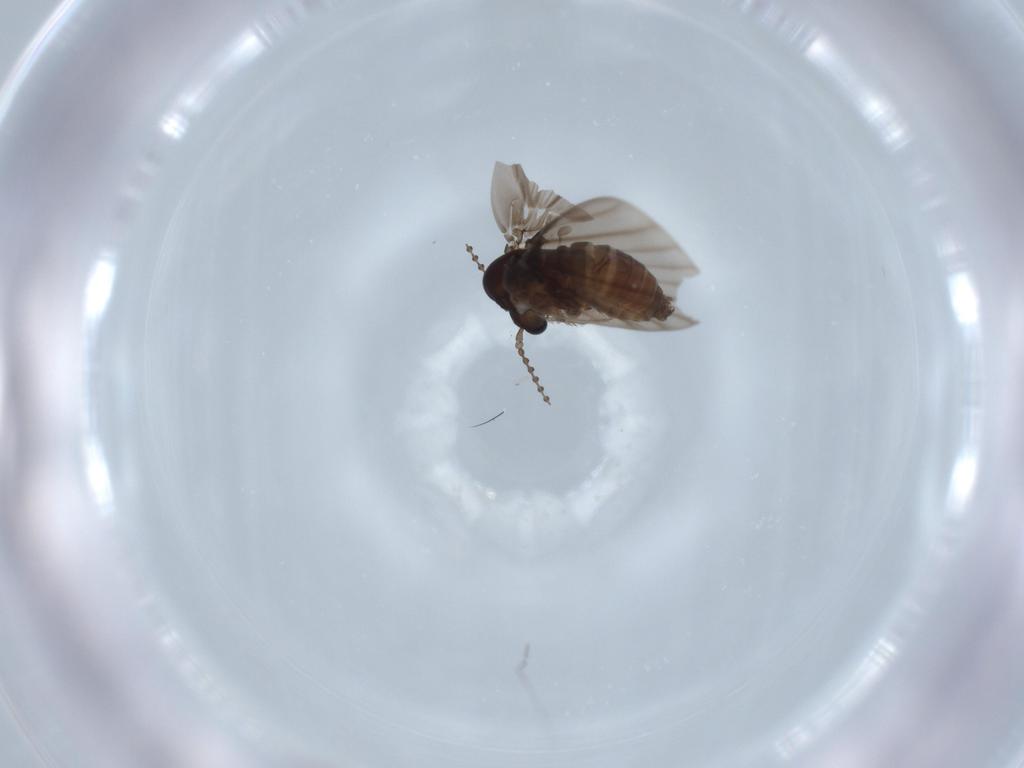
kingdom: Animalia
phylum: Arthropoda
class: Insecta
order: Diptera
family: Psychodidae
